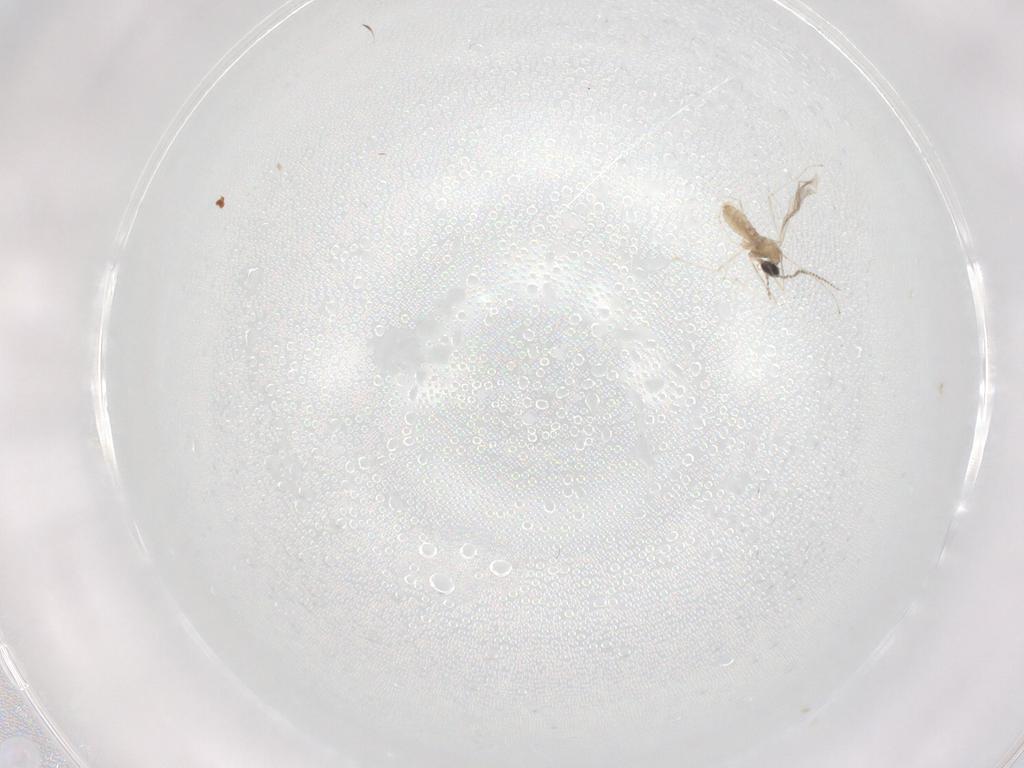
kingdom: Animalia
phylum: Arthropoda
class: Insecta
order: Diptera
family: Cecidomyiidae
